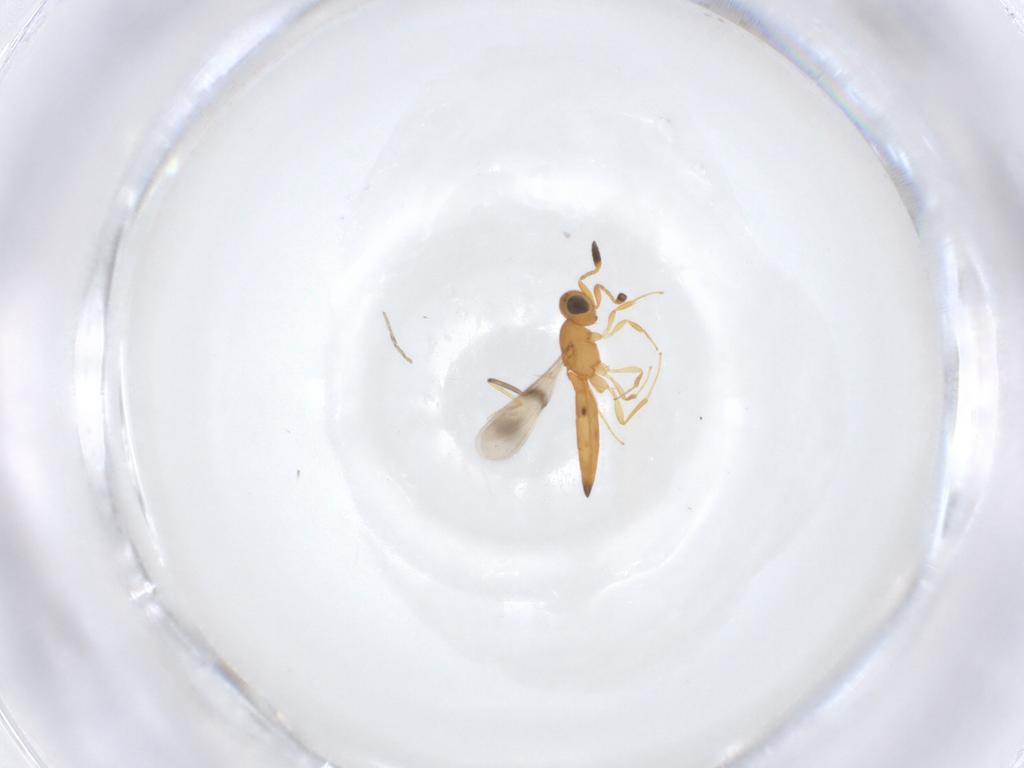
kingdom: Animalia
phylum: Arthropoda
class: Insecta
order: Hymenoptera
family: Scelionidae
